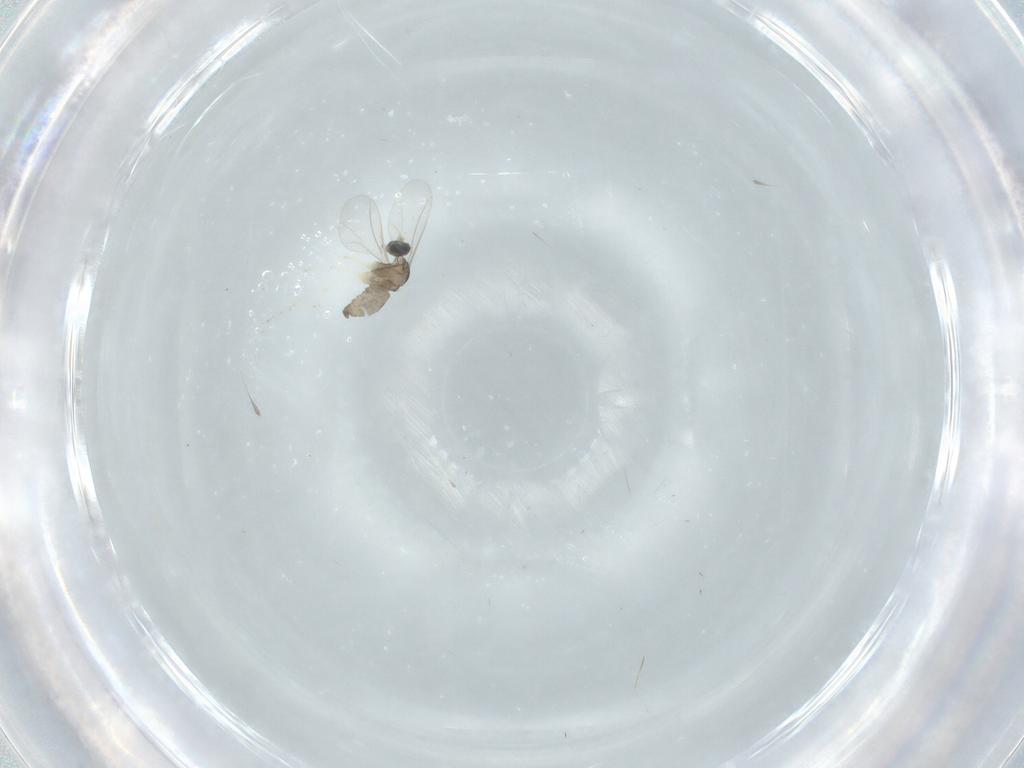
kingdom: Animalia
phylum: Arthropoda
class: Insecta
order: Diptera
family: Cecidomyiidae
